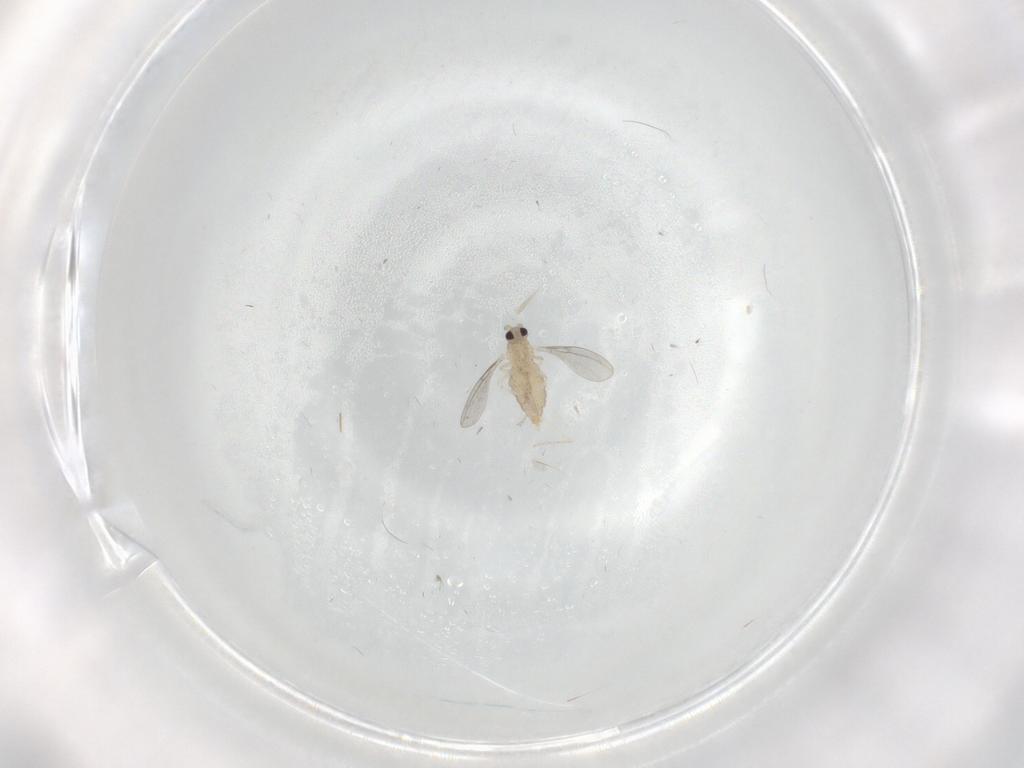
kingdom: Animalia
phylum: Arthropoda
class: Insecta
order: Diptera
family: Cecidomyiidae
